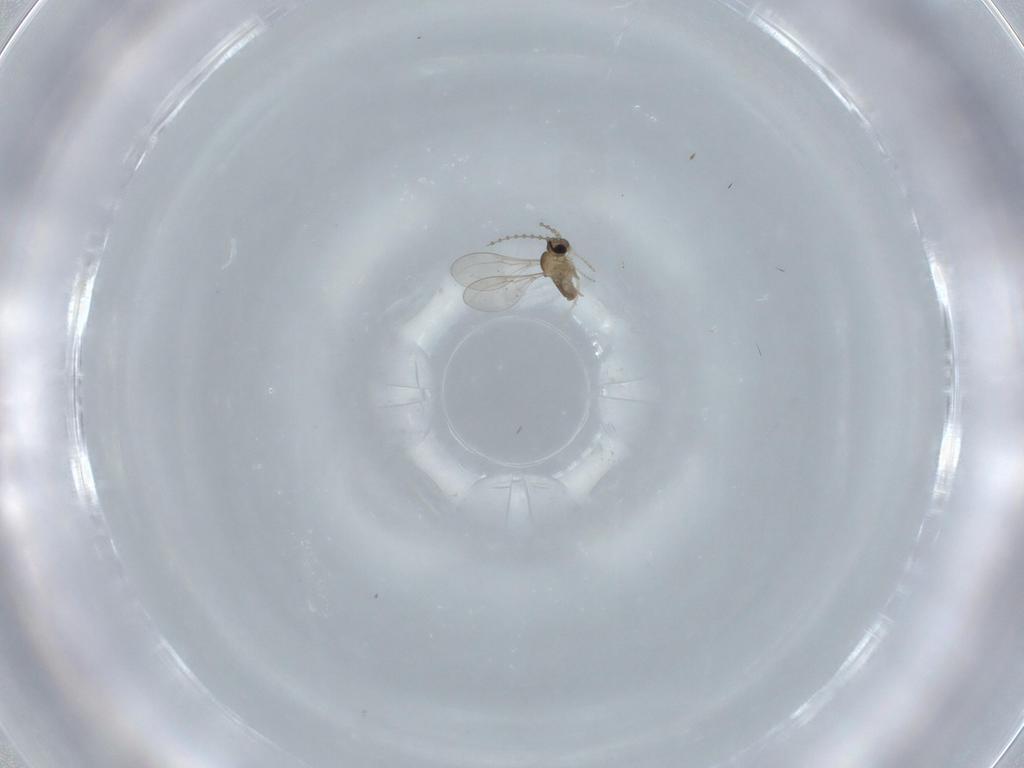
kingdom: Animalia
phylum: Arthropoda
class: Insecta
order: Diptera
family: Cecidomyiidae
